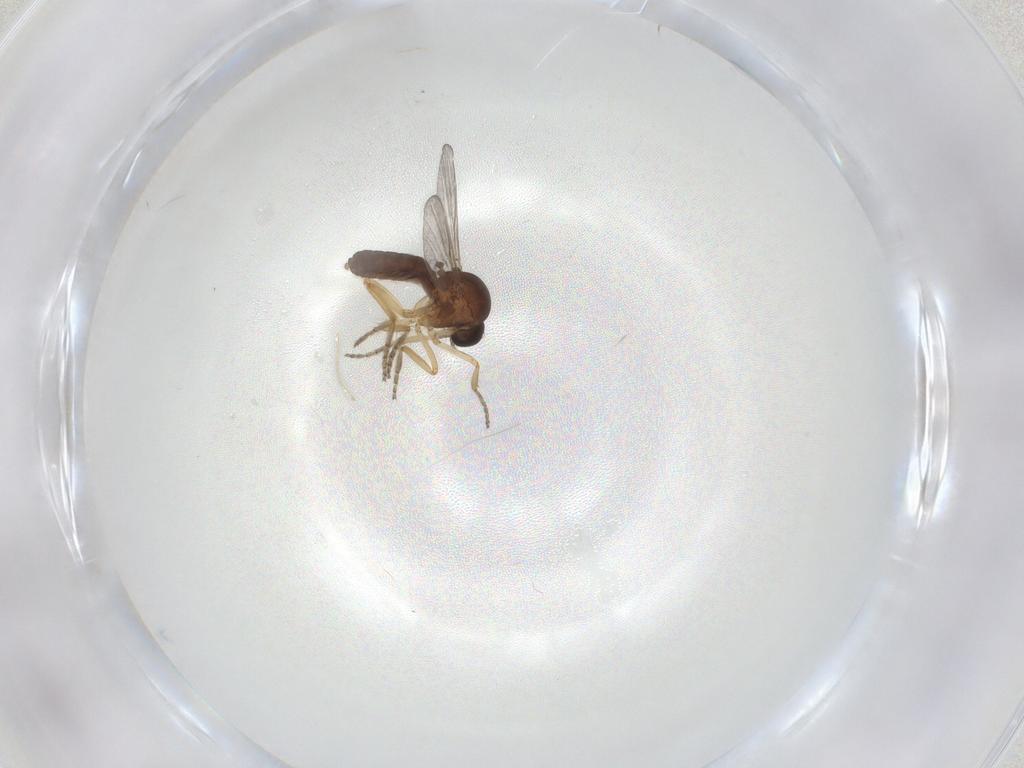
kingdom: Animalia
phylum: Arthropoda
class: Insecta
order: Diptera
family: Ceratopogonidae
